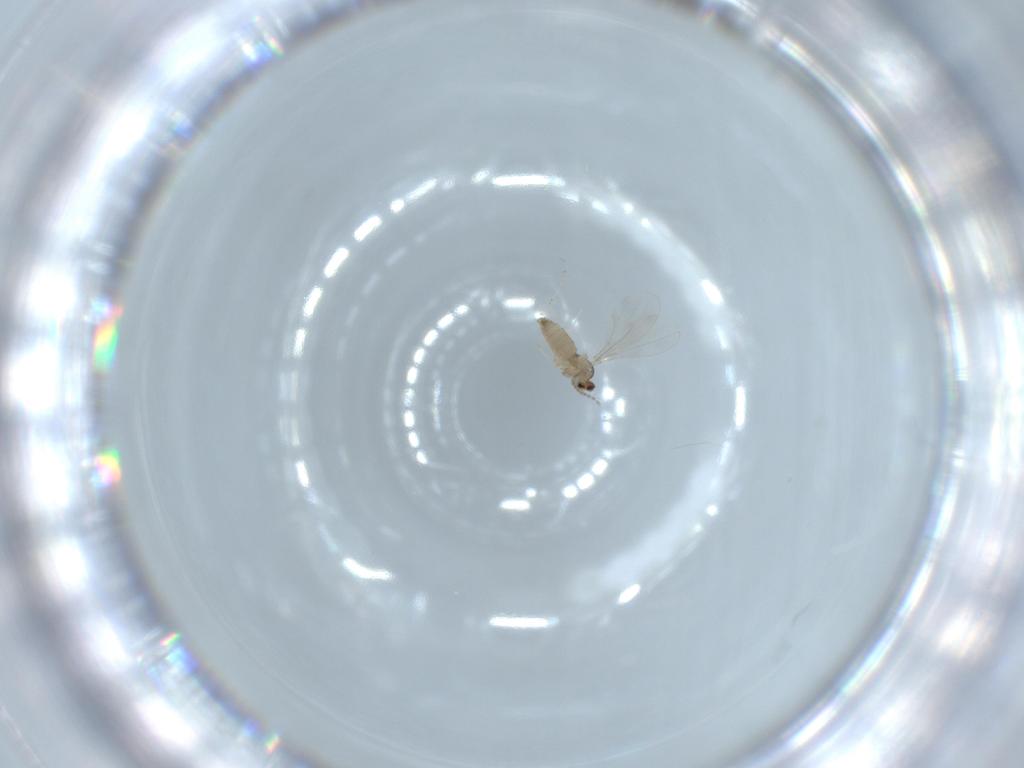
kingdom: Animalia
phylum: Arthropoda
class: Insecta
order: Diptera
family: Cecidomyiidae
